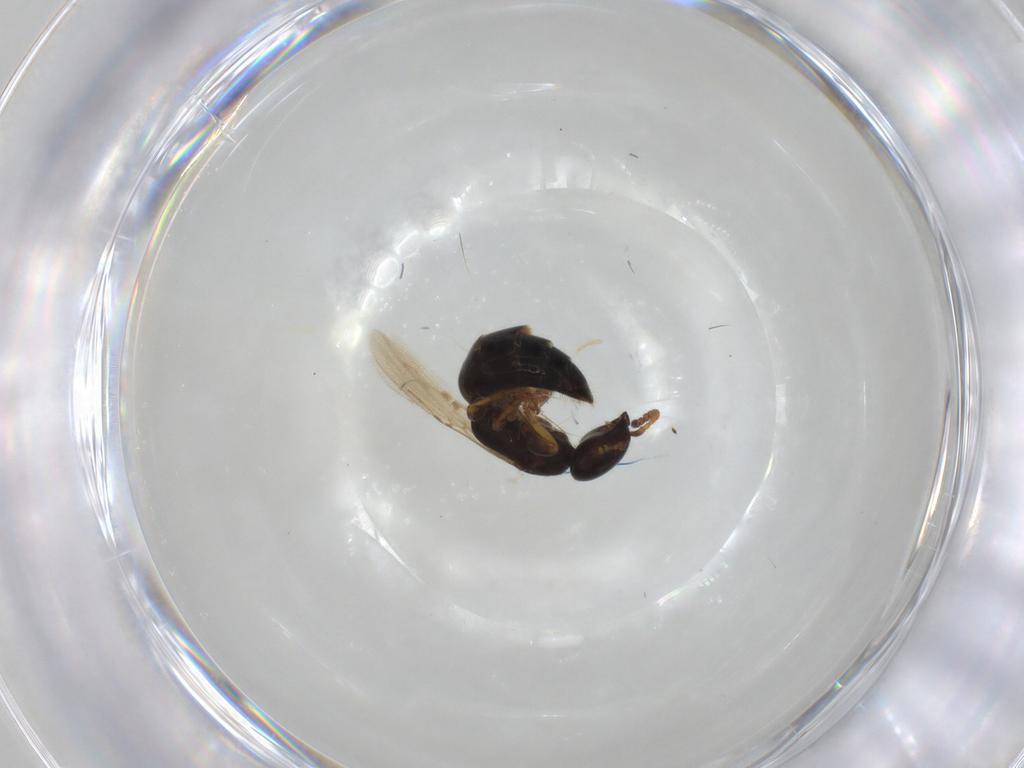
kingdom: Animalia
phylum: Arthropoda
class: Insecta
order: Hymenoptera
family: Bethylidae
